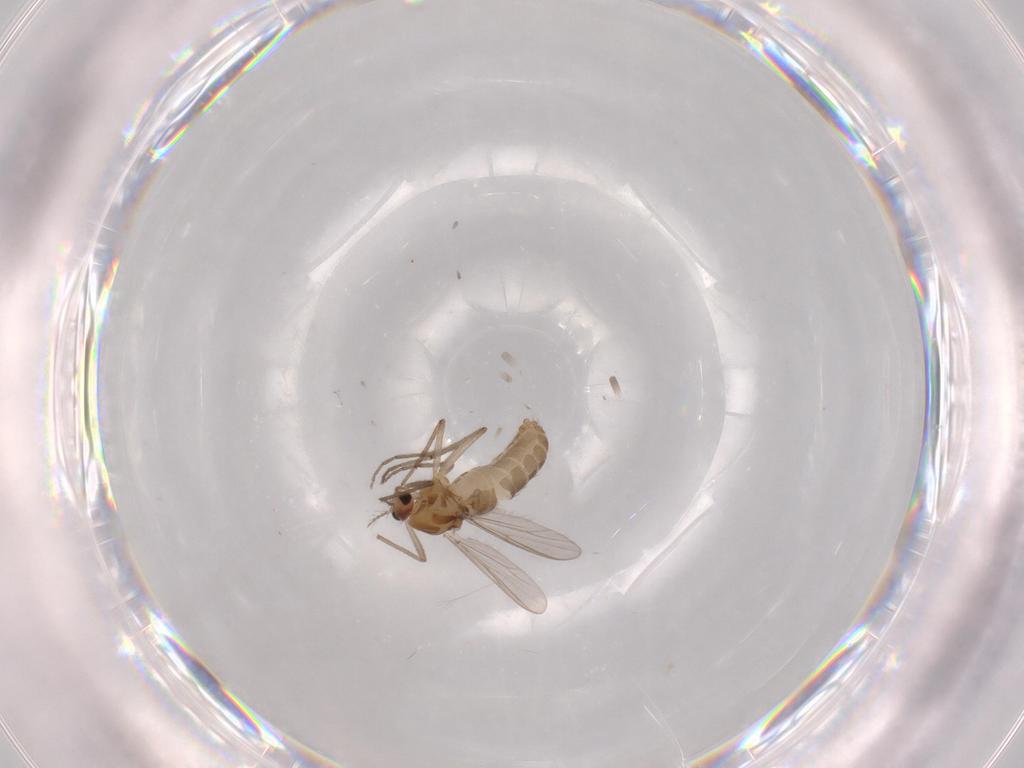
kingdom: Animalia
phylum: Arthropoda
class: Insecta
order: Diptera
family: Chironomidae
